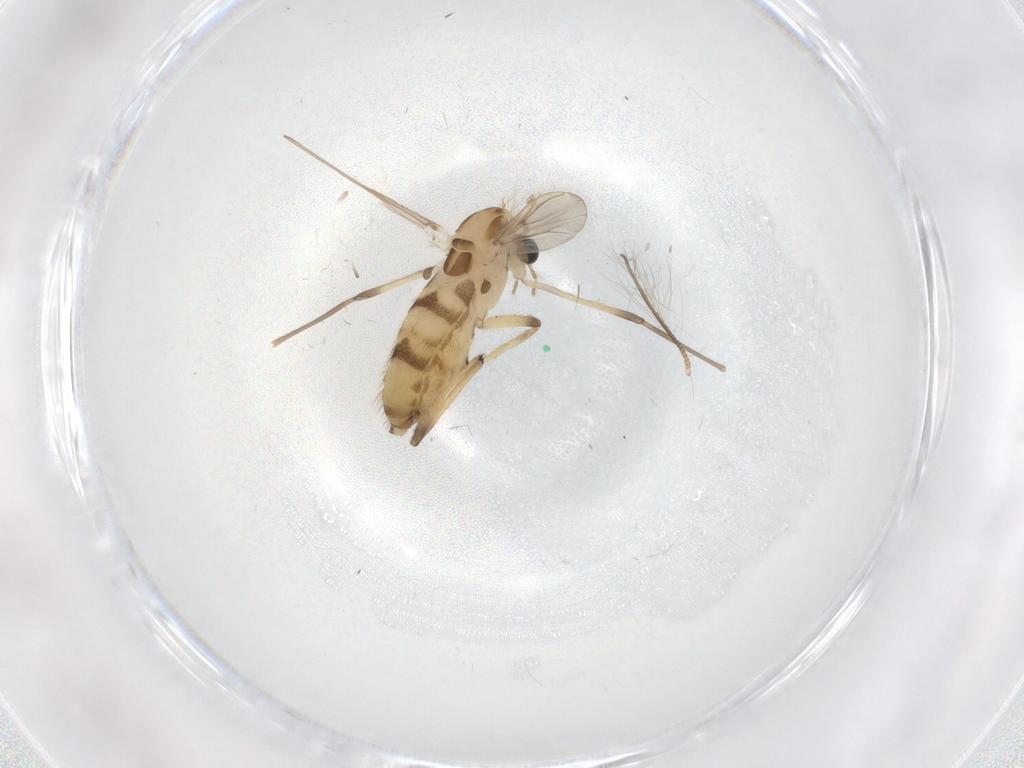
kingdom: Animalia
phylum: Arthropoda
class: Insecta
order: Diptera
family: Chironomidae
